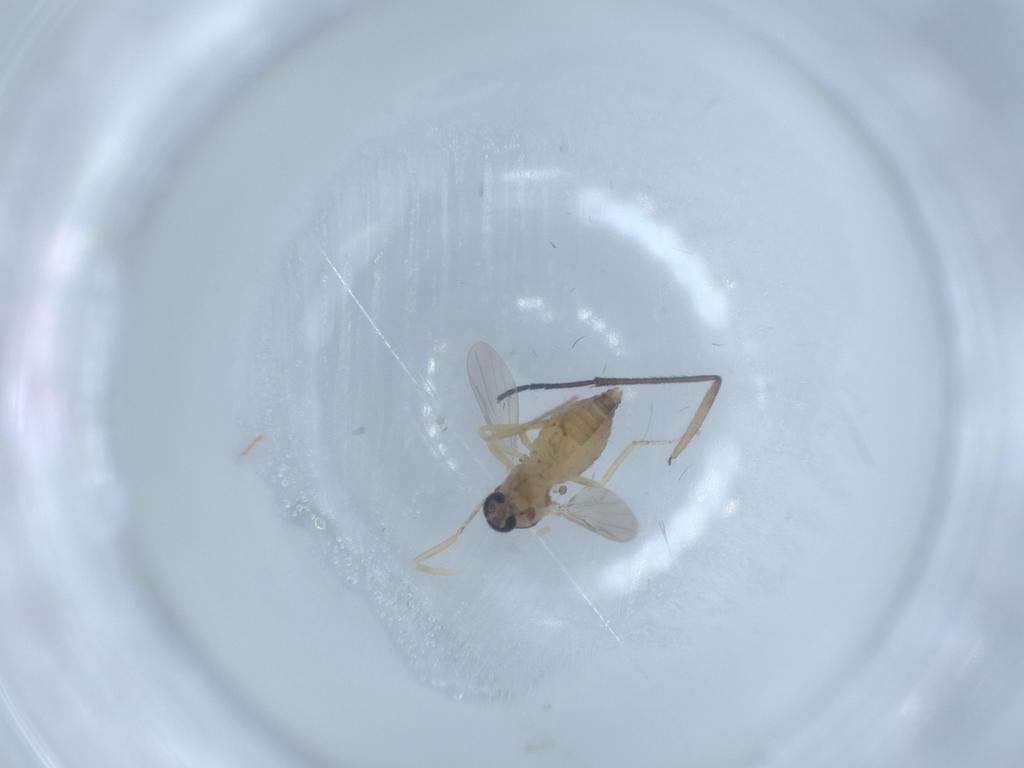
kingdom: Animalia
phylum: Arthropoda
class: Insecta
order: Diptera
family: Ceratopogonidae
